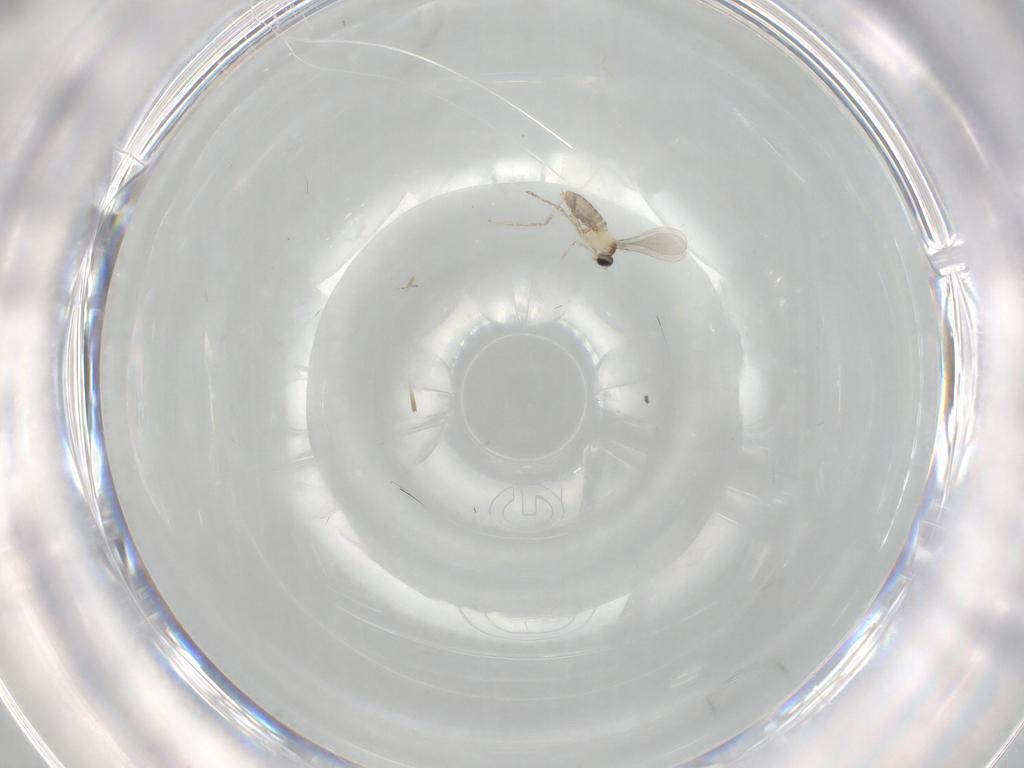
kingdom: Animalia
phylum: Arthropoda
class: Insecta
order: Diptera
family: Cecidomyiidae
